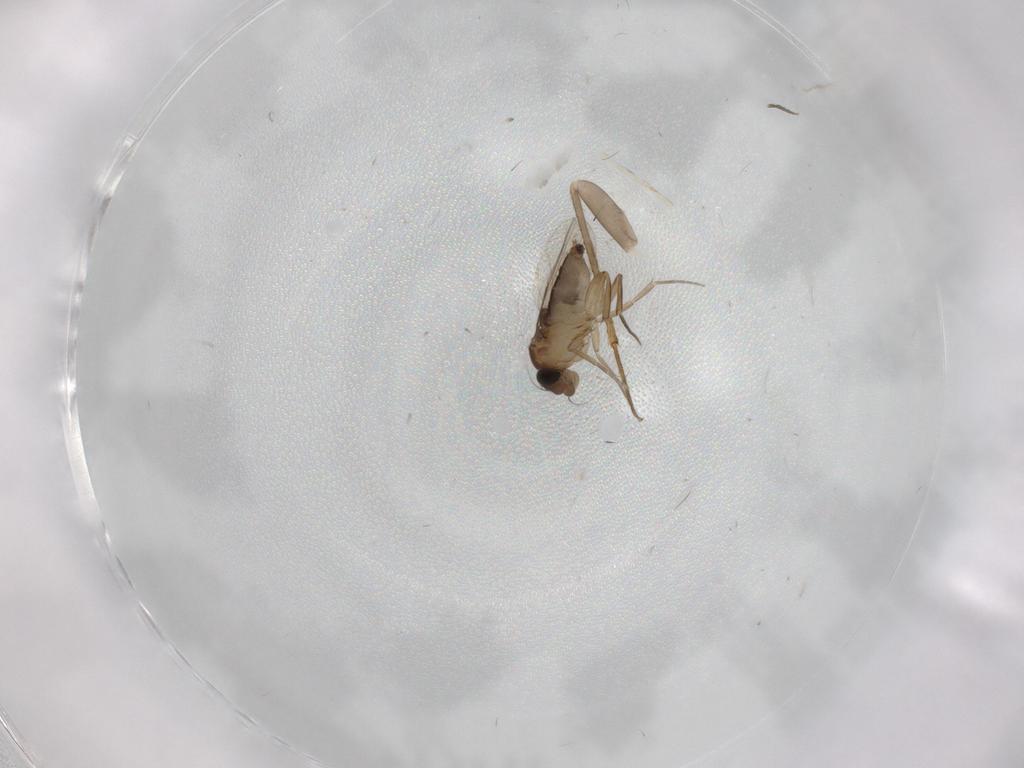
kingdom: Animalia
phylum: Arthropoda
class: Insecta
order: Diptera
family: Phoridae
